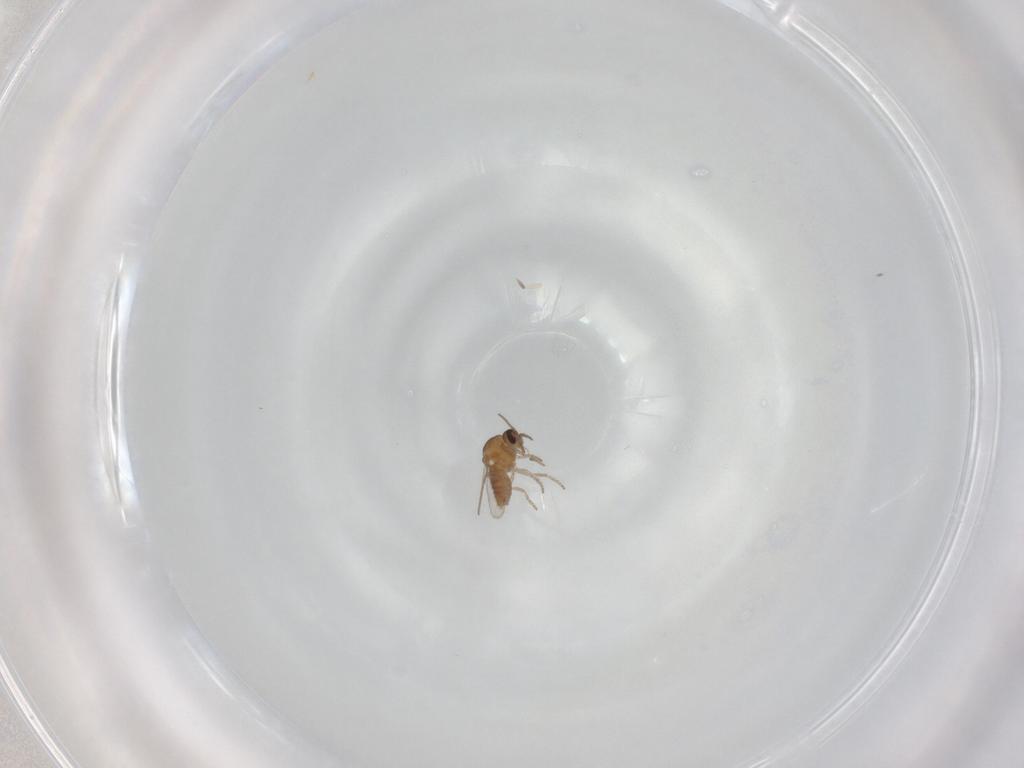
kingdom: Animalia
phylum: Arthropoda
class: Insecta
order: Diptera
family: Ceratopogonidae
